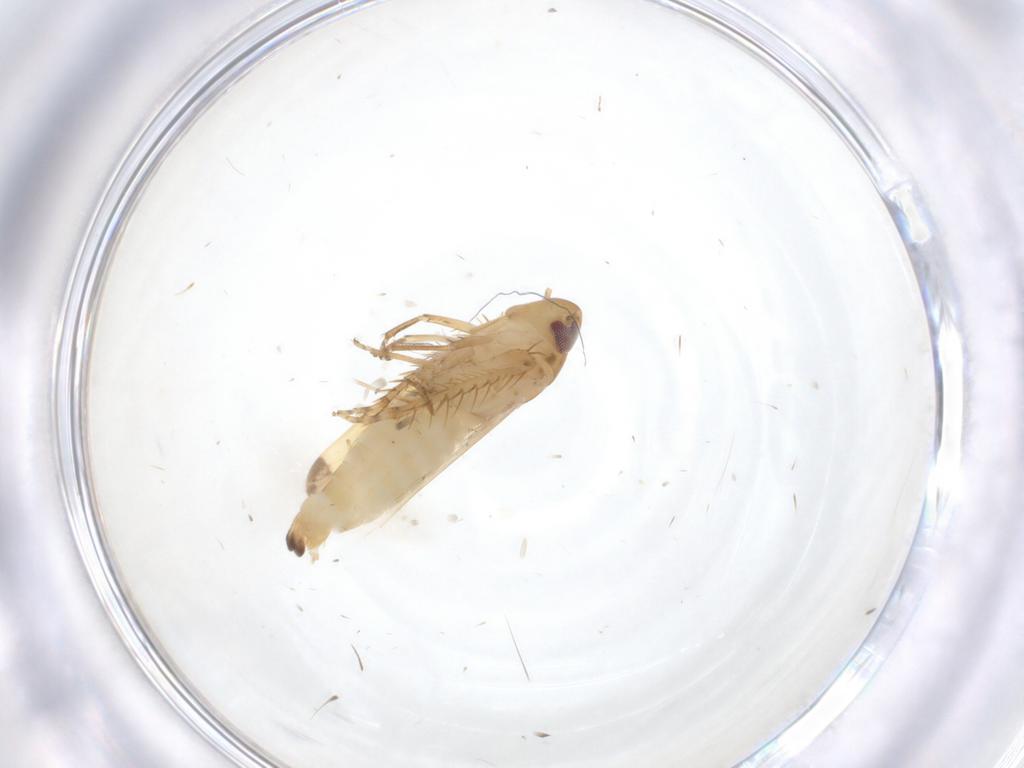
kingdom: Animalia
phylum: Arthropoda
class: Insecta
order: Hemiptera
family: Cicadellidae
